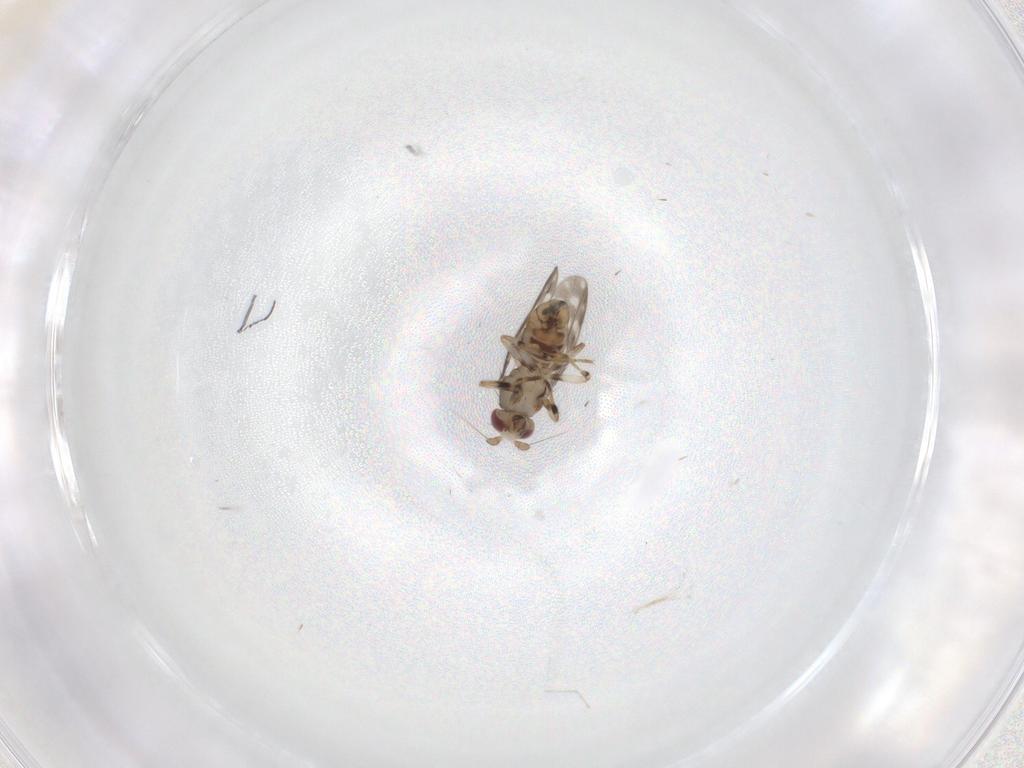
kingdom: Animalia
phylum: Arthropoda
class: Insecta
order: Diptera
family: Sphaeroceridae
